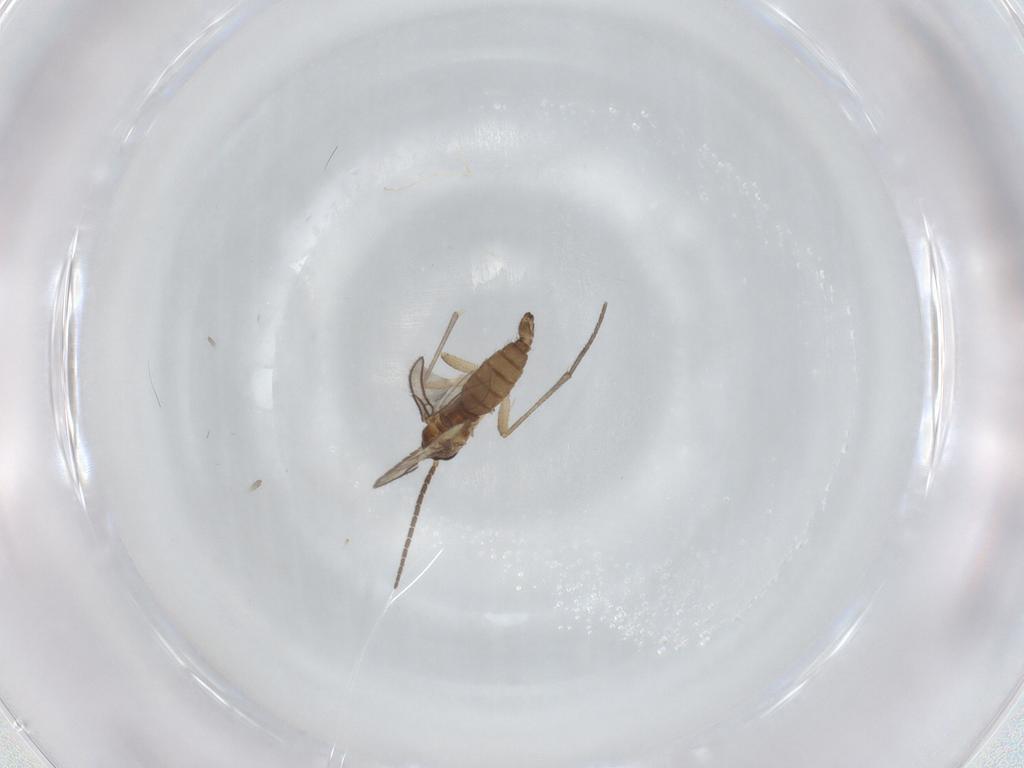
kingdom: Animalia
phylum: Arthropoda
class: Insecta
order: Diptera
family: Sciaridae
